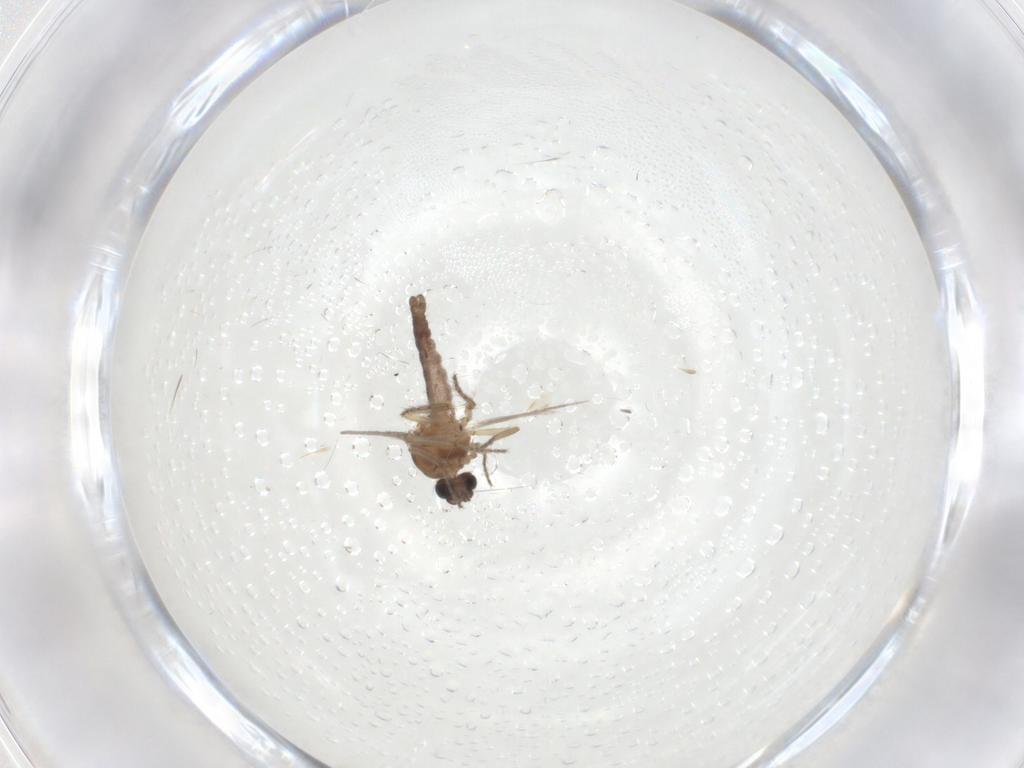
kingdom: Animalia
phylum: Arthropoda
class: Insecta
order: Diptera
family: Ceratopogonidae
